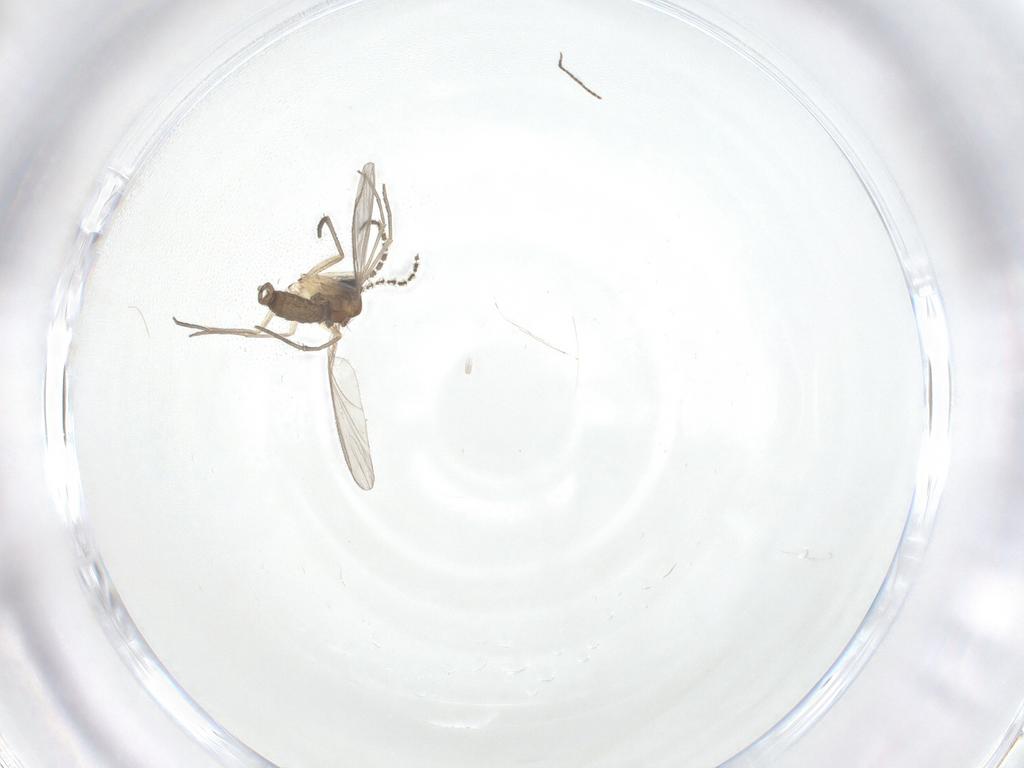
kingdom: Animalia
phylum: Arthropoda
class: Insecta
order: Diptera
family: Sciaridae
